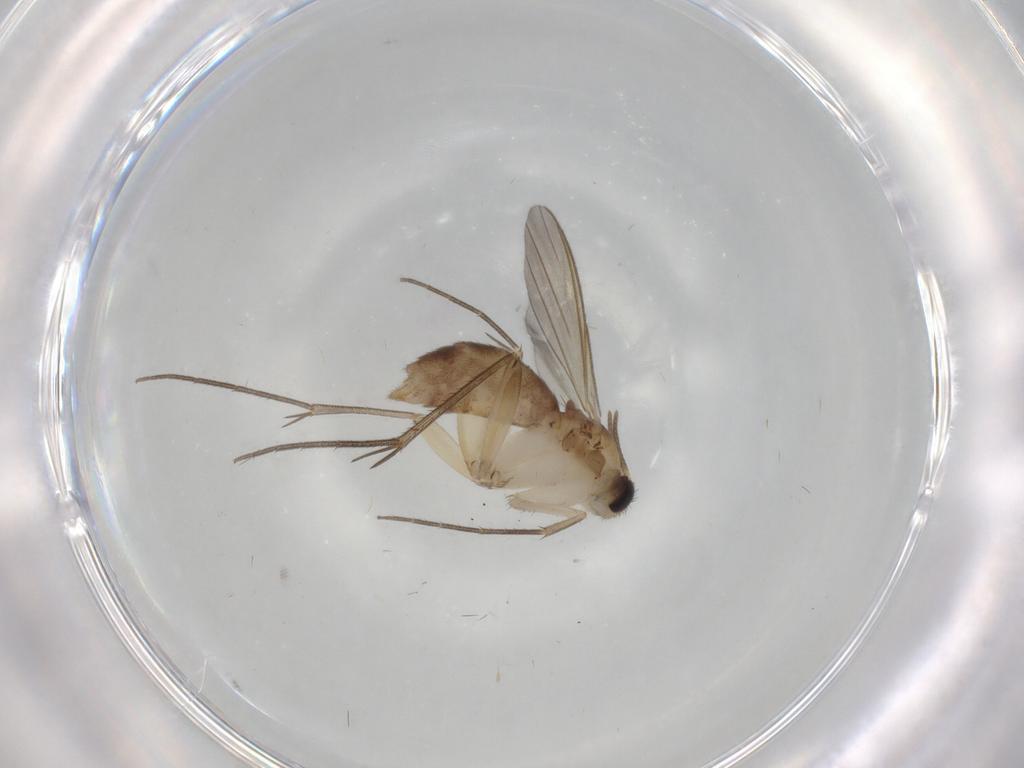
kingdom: Animalia
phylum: Arthropoda
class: Insecta
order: Diptera
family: Mycetophilidae
